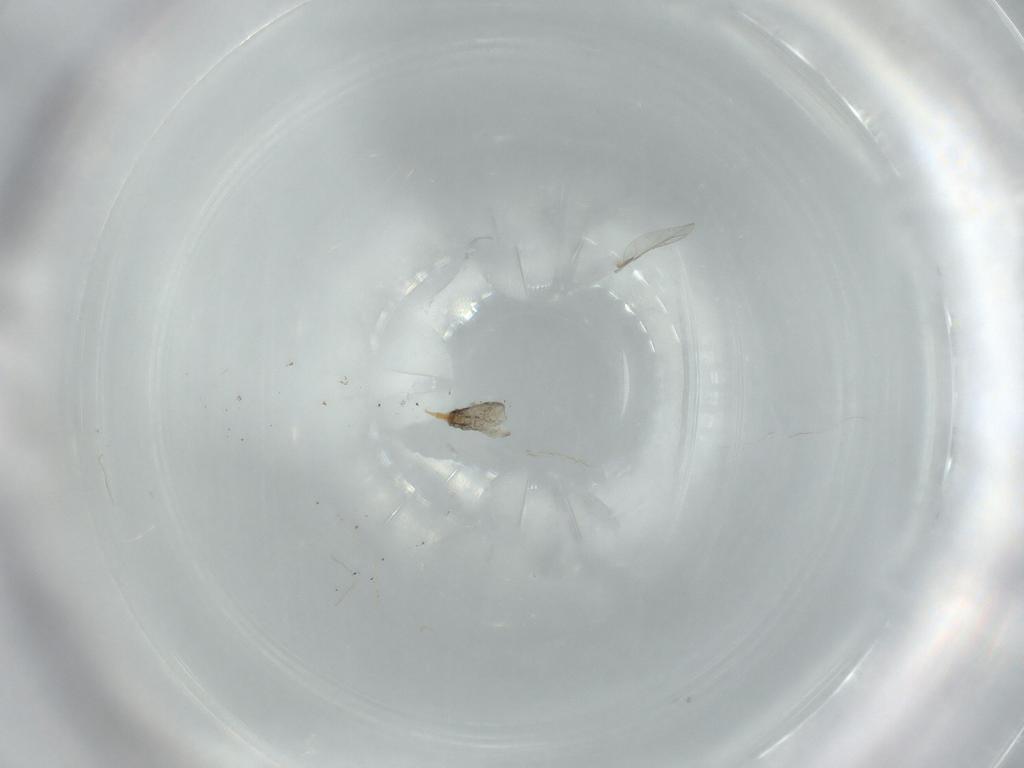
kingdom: Animalia
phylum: Arthropoda
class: Insecta
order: Diptera
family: Cecidomyiidae
